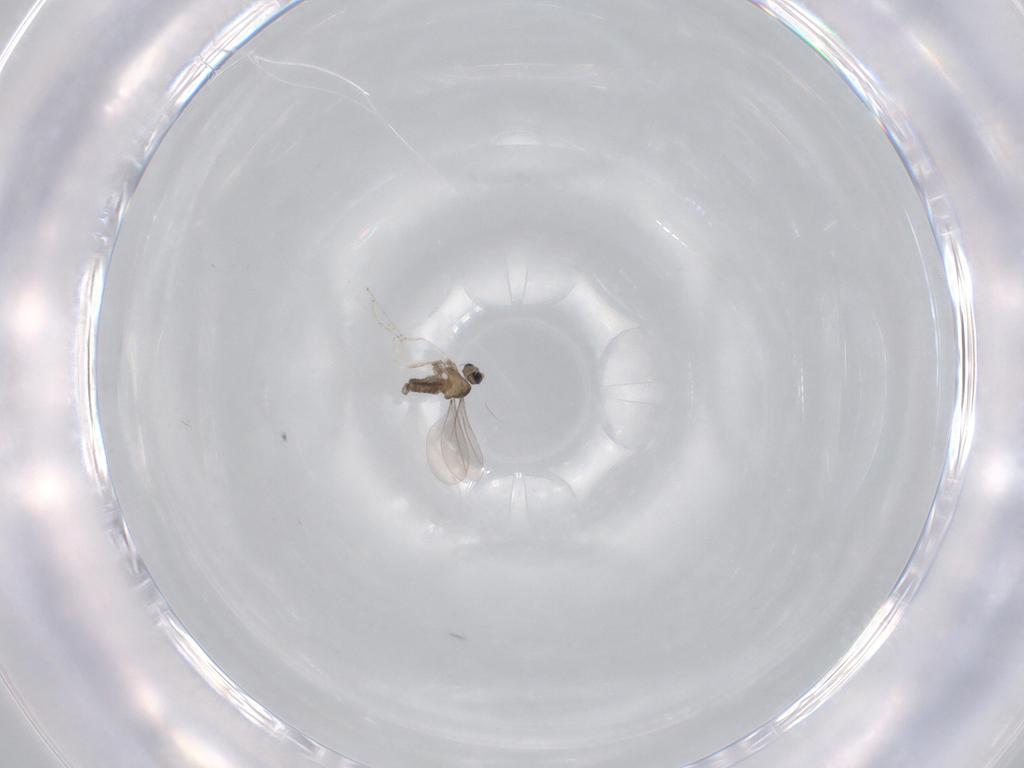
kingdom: Animalia
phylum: Arthropoda
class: Insecta
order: Diptera
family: Cecidomyiidae
